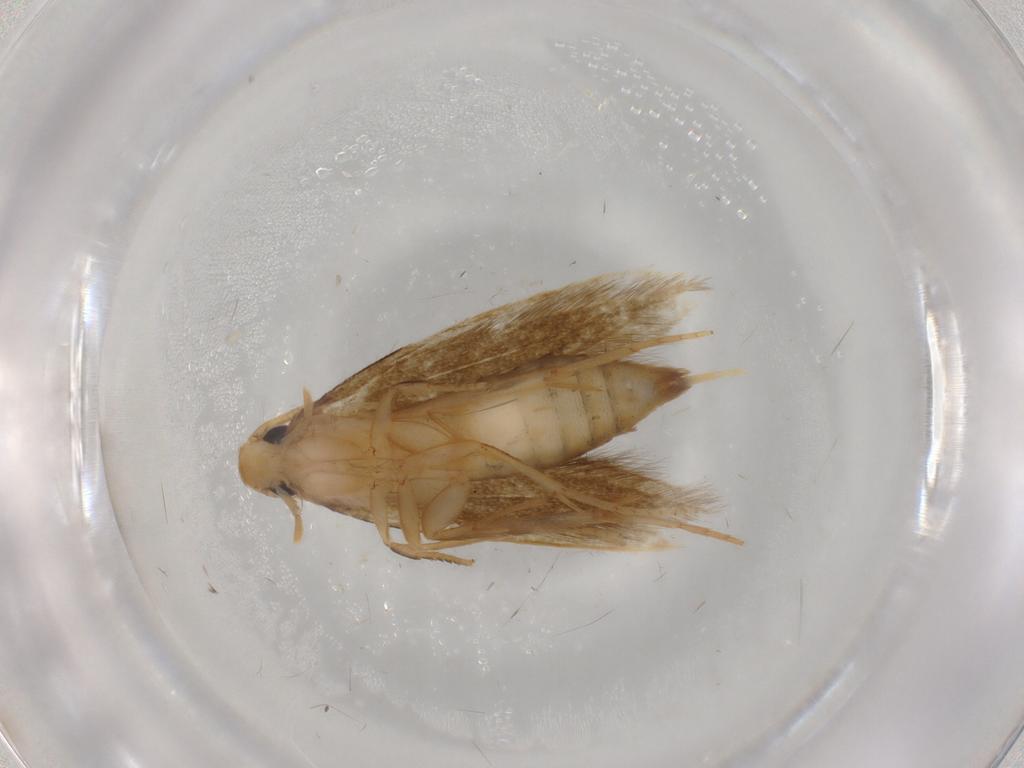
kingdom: Animalia
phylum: Arthropoda
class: Insecta
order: Lepidoptera
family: Tineidae
